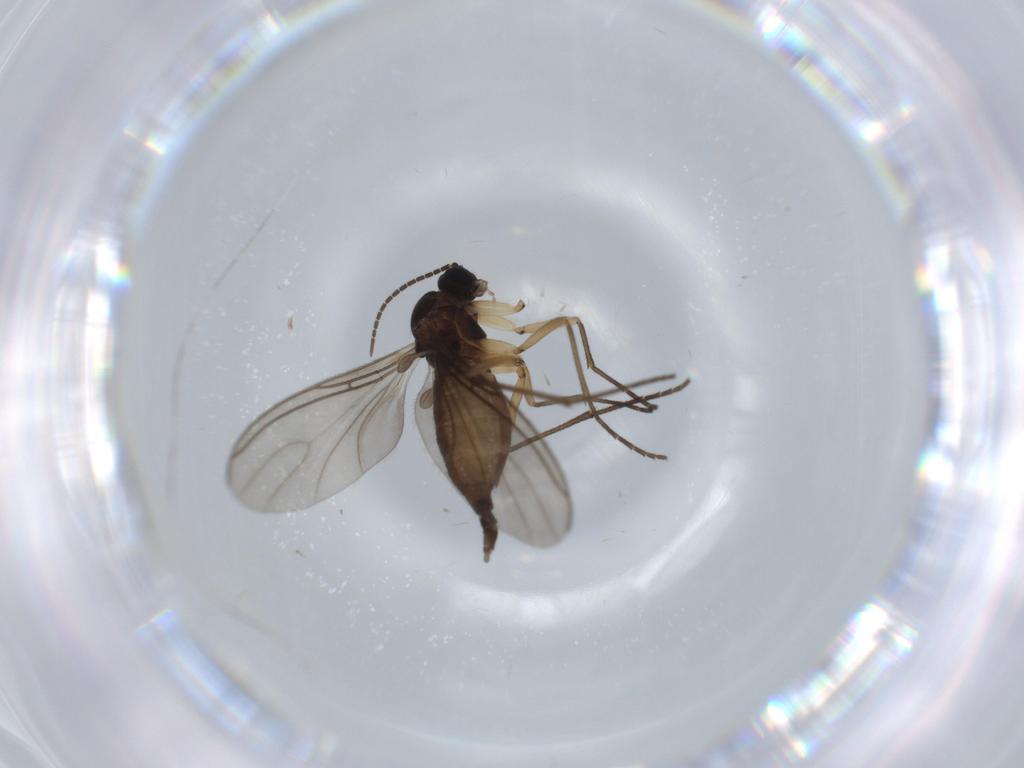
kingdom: Animalia
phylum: Arthropoda
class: Insecta
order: Diptera
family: Sciaridae
